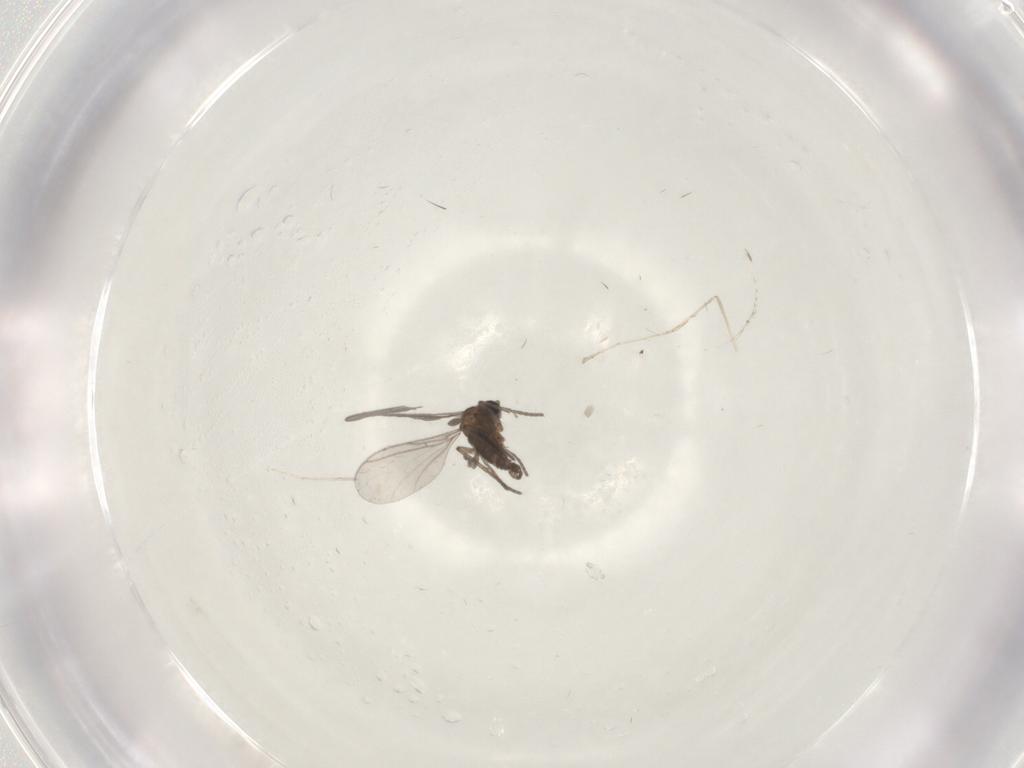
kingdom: Animalia
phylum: Arthropoda
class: Insecta
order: Diptera
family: Cecidomyiidae
